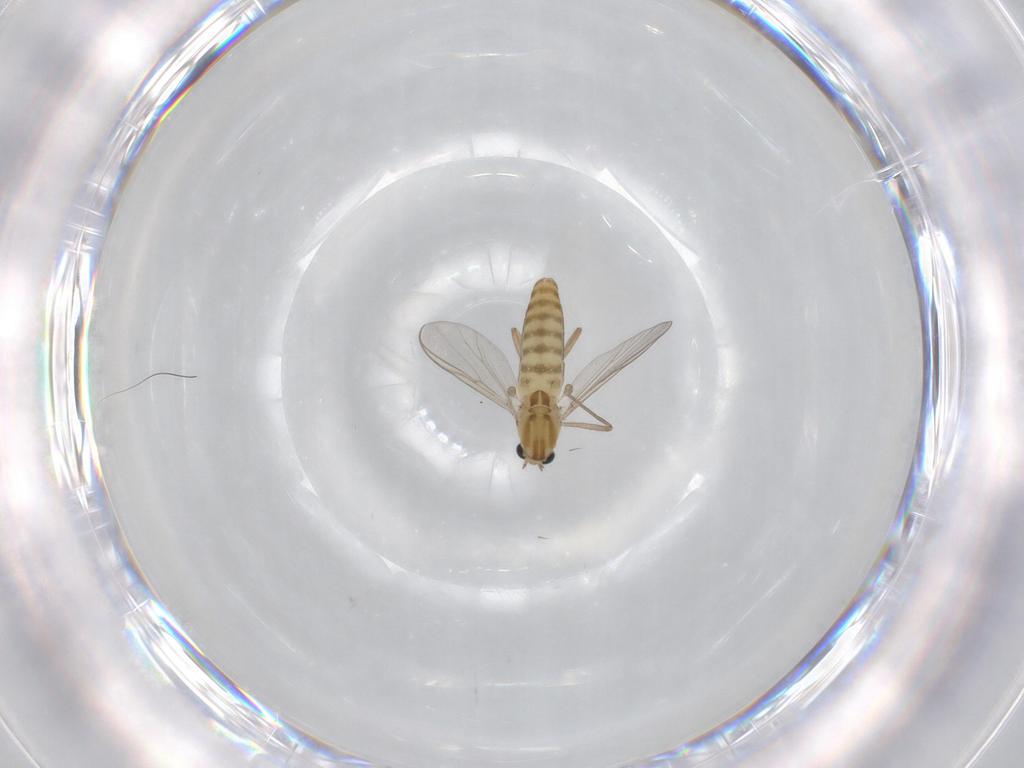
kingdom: Animalia
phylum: Arthropoda
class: Insecta
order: Diptera
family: Chironomidae
